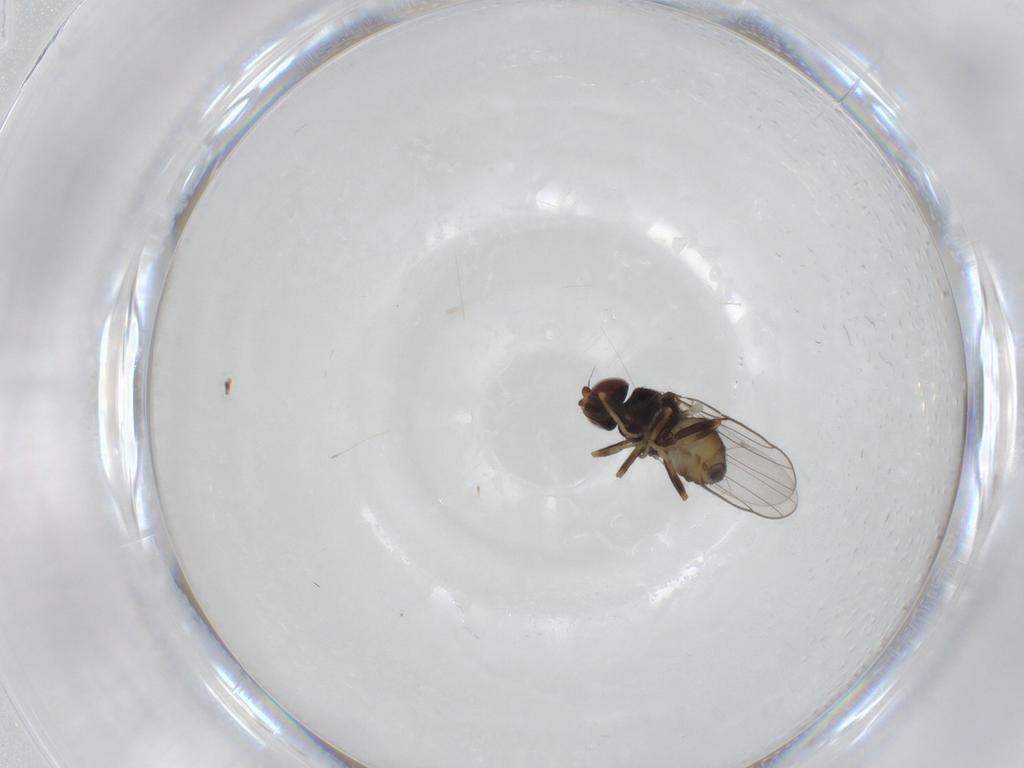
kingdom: Animalia
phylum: Arthropoda
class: Insecta
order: Diptera
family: Chloropidae
